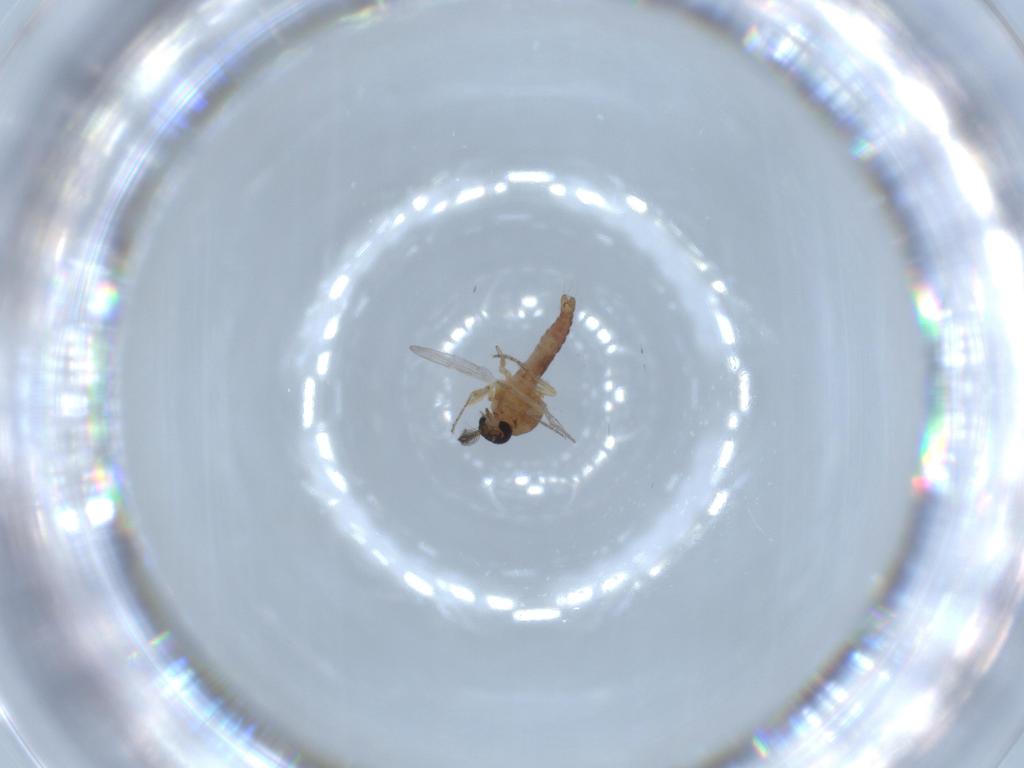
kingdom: Animalia
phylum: Arthropoda
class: Insecta
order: Diptera
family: Ceratopogonidae
